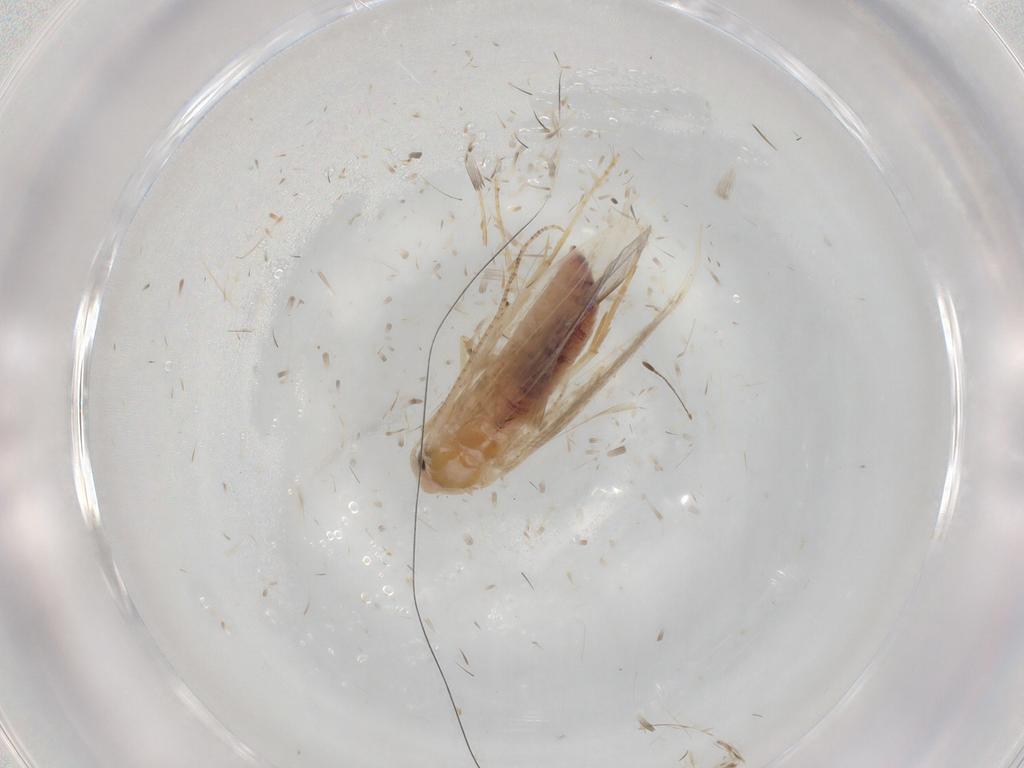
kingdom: Animalia
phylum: Arthropoda
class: Insecta
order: Lepidoptera
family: Bucculatricidae
